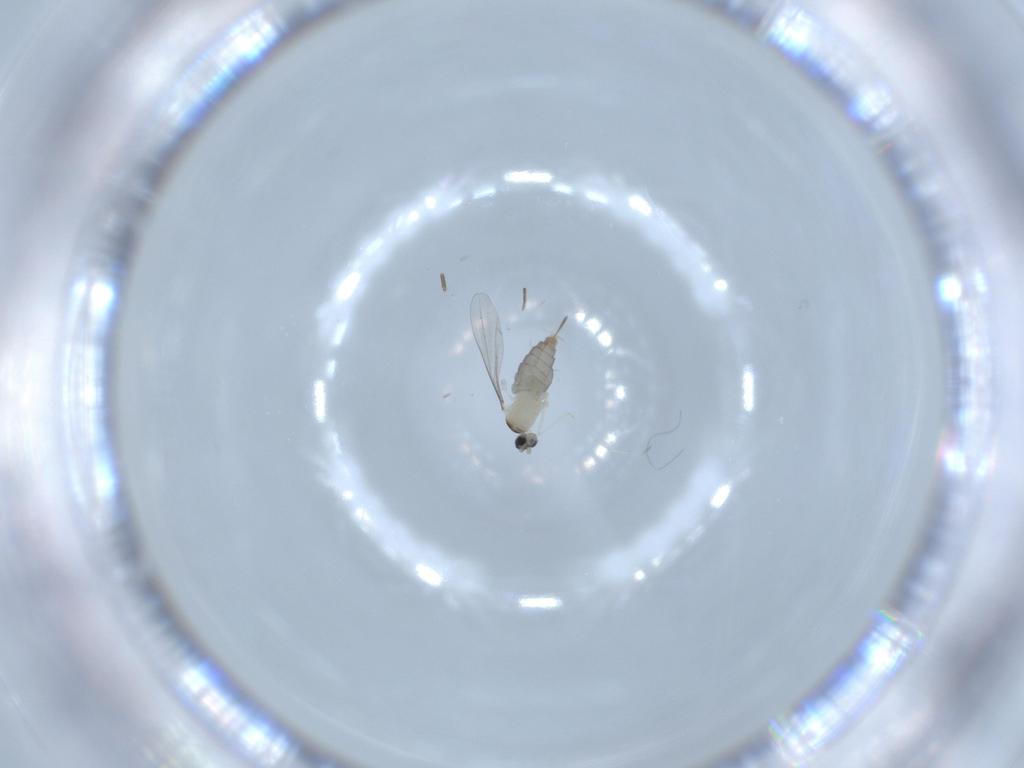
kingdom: Animalia
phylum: Arthropoda
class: Insecta
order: Diptera
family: Phoridae
